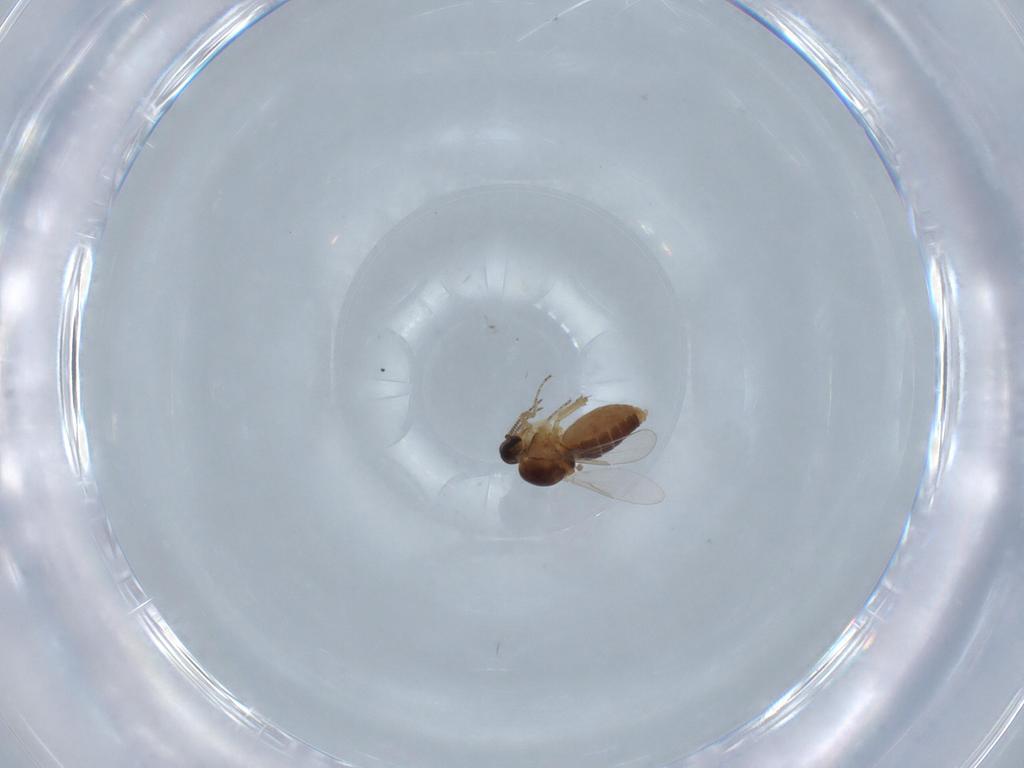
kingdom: Animalia
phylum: Arthropoda
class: Insecta
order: Diptera
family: Ceratopogonidae
